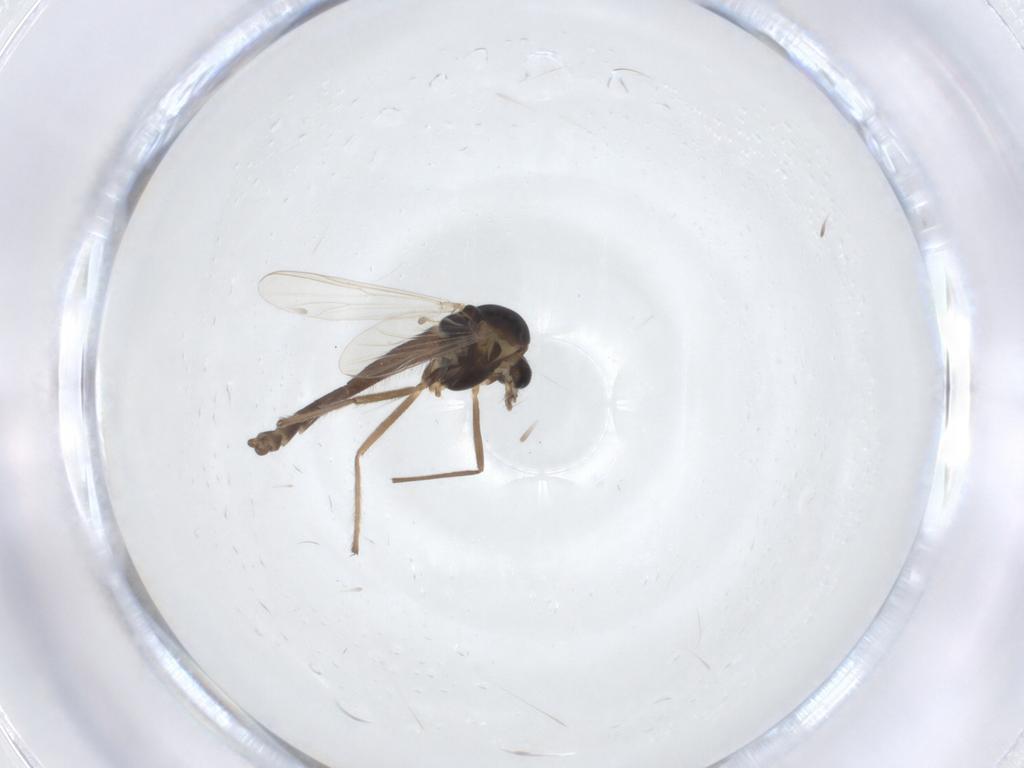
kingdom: Animalia
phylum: Arthropoda
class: Insecta
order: Diptera
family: Chironomidae
